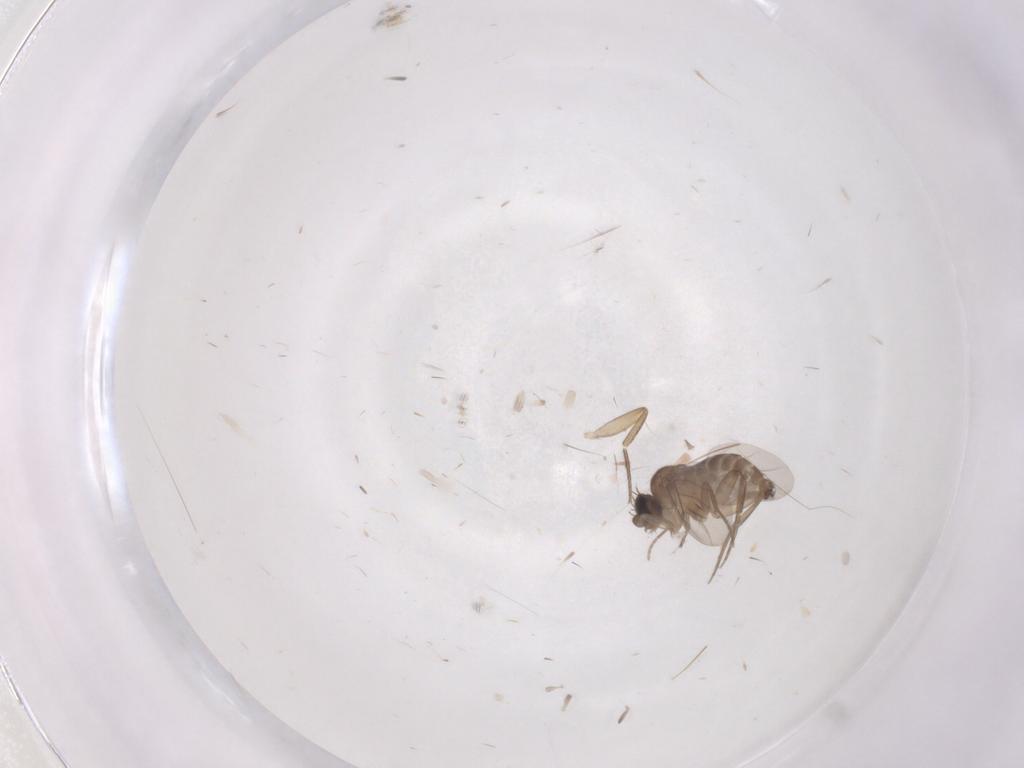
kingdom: Animalia
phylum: Arthropoda
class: Insecta
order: Diptera
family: Phoridae
